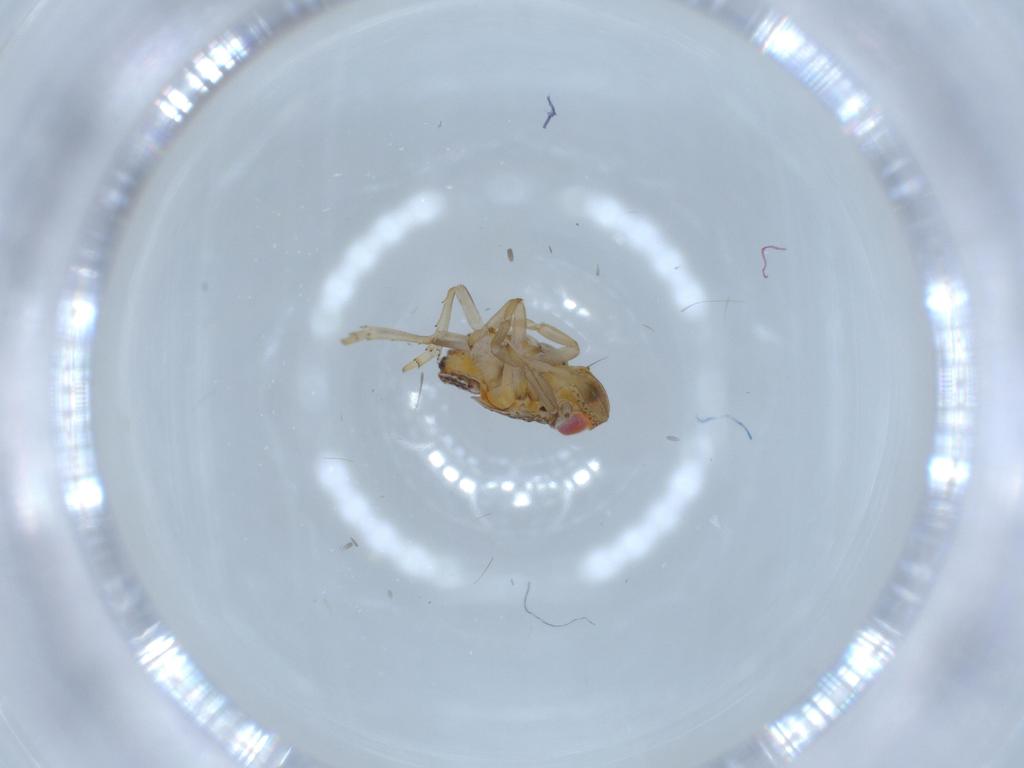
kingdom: Animalia
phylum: Arthropoda
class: Insecta
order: Hemiptera
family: Issidae
